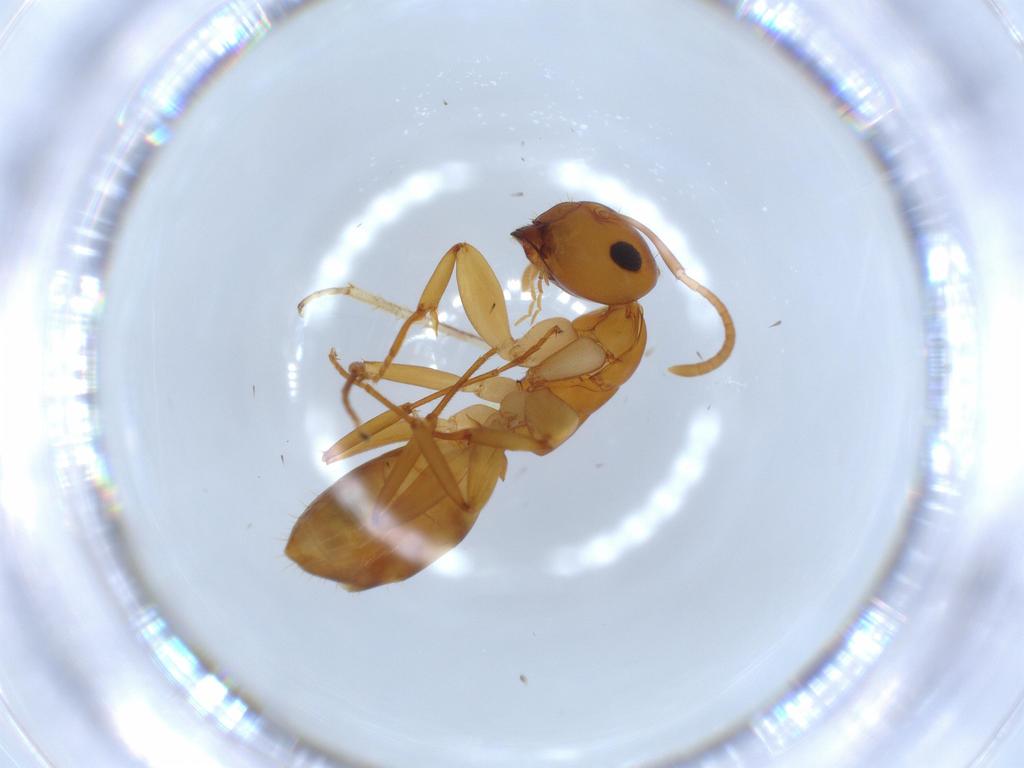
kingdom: Animalia
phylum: Arthropoda
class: Insecta
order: Hymenoptera
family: Formicidae
